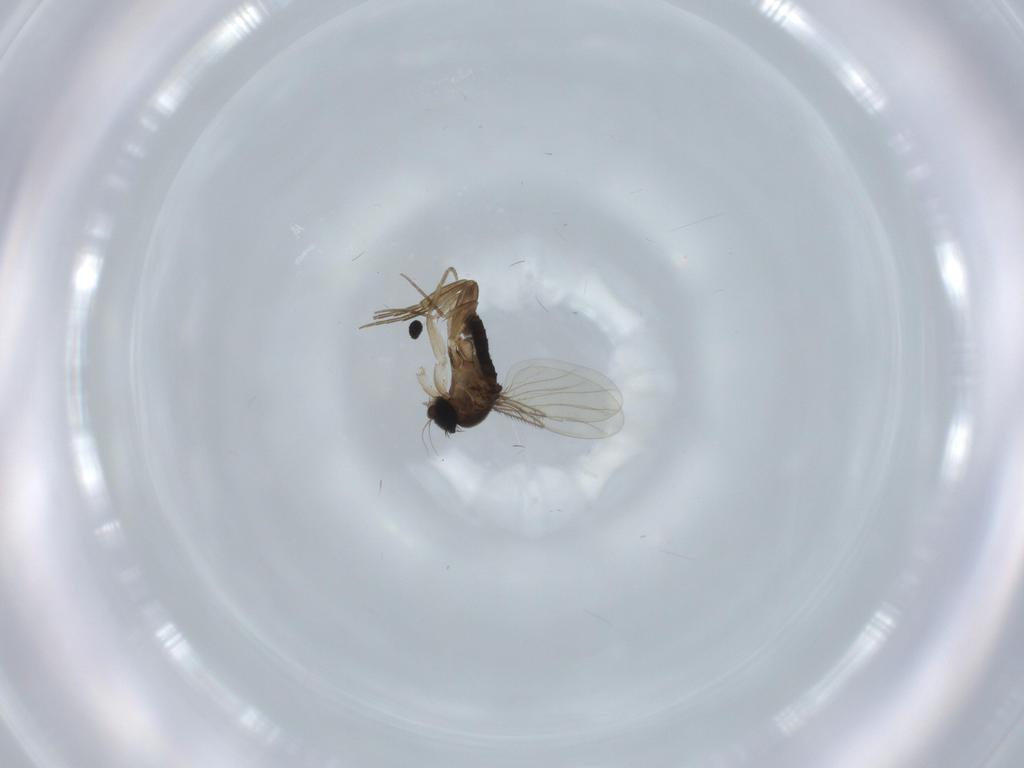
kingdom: Animalia
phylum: Arthropoda
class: Insecta
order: Diptera
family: Phoridae
